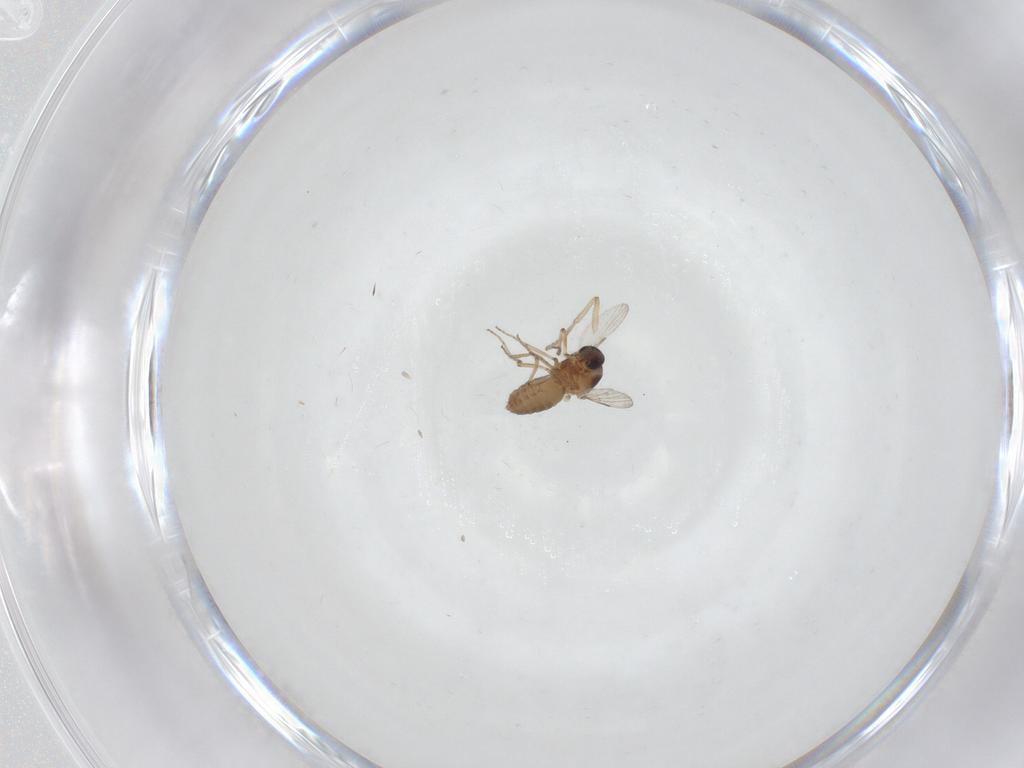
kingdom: Animalia
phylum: Arthropoda
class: Insecta
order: Diptera
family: Ceratopogonidae
